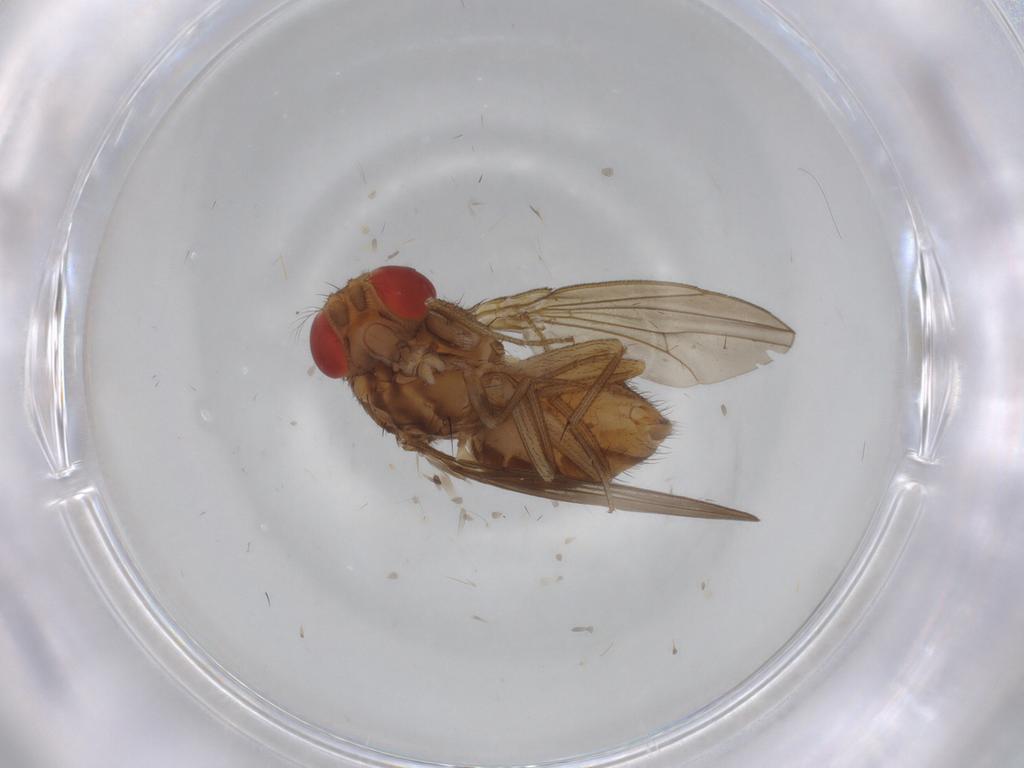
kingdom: Animalia
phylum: Arthropoda
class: Insecta
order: Diptera
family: Drosophilidae
